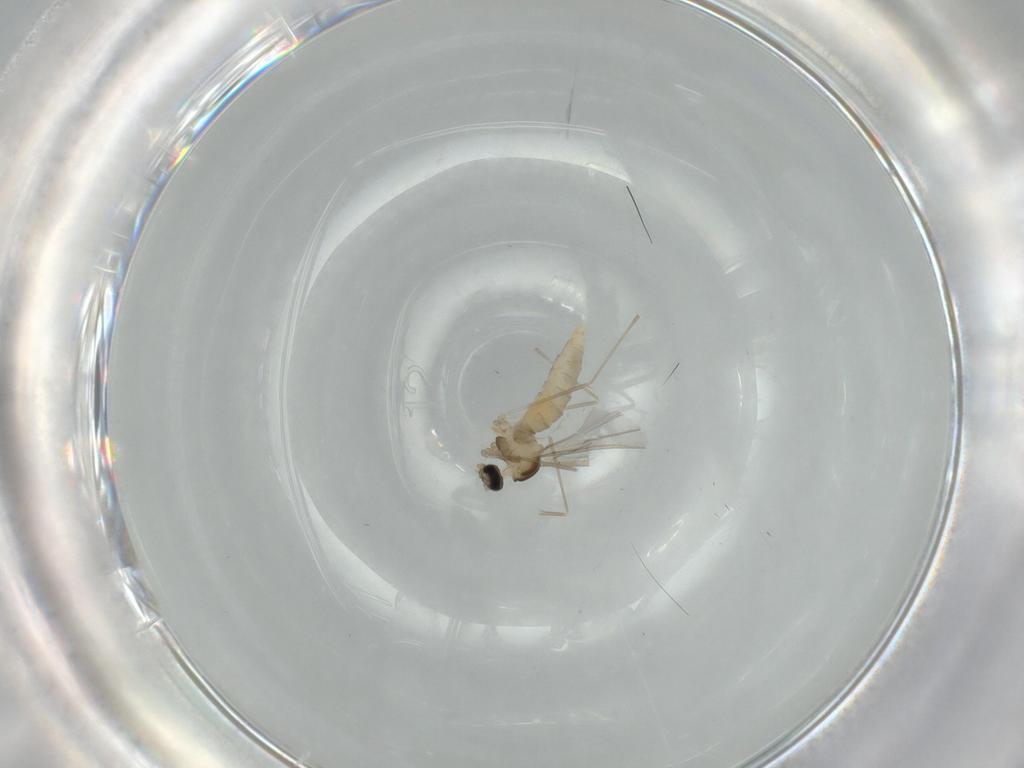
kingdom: Animalia
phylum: Arthropoda
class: Insecta
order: Diptera
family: Cecidomyiidae
